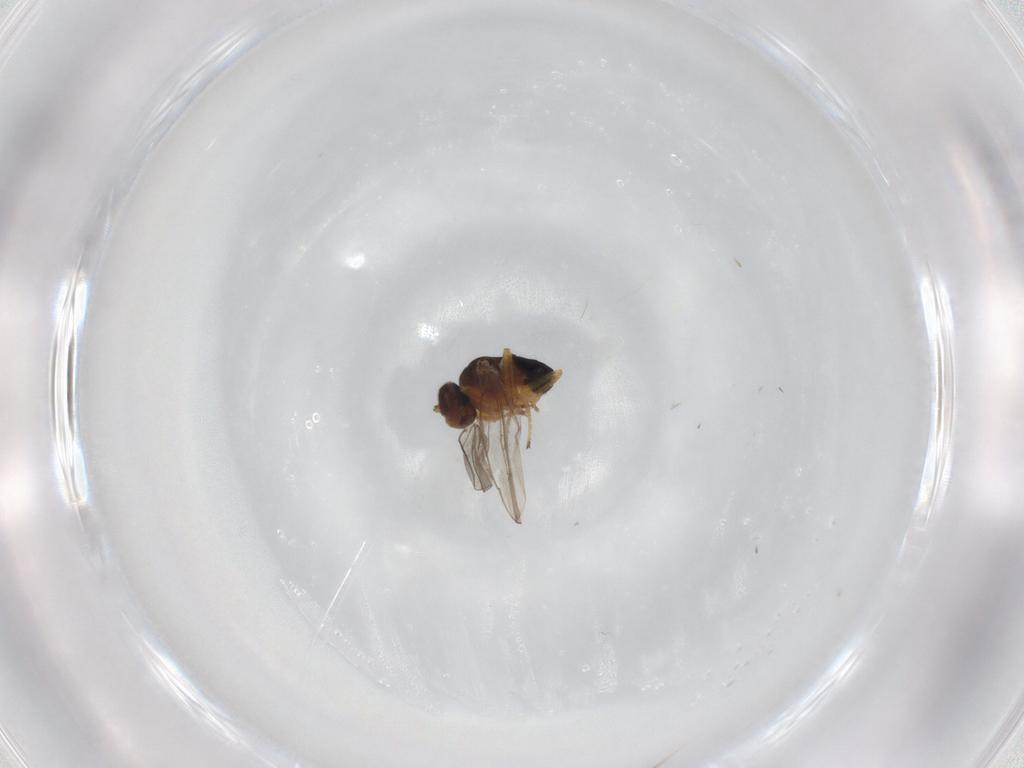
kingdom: Animalia
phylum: Arthropoda
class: Insecta
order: Diptera
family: Ephydridae
